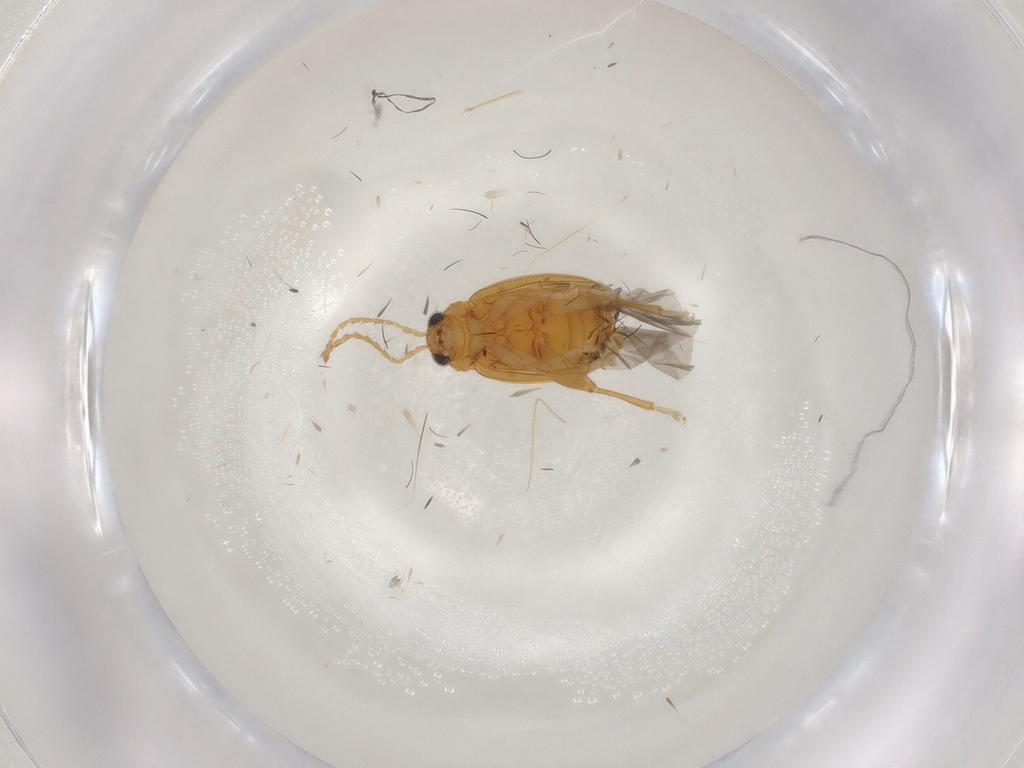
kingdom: Animalia
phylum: Arthropoda
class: Insecta
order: Coleoptera
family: Chrysomelidae
